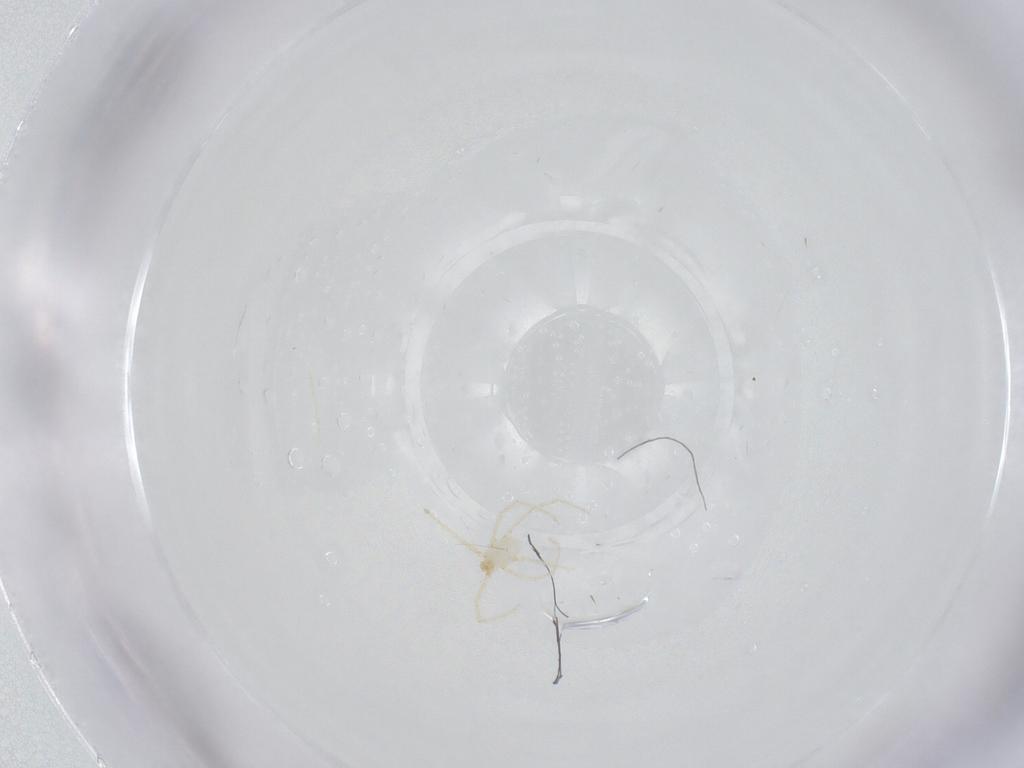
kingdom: Animalia
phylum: Arthropoda
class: Arachnida
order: Trombidiformes
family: Erythraeidae
